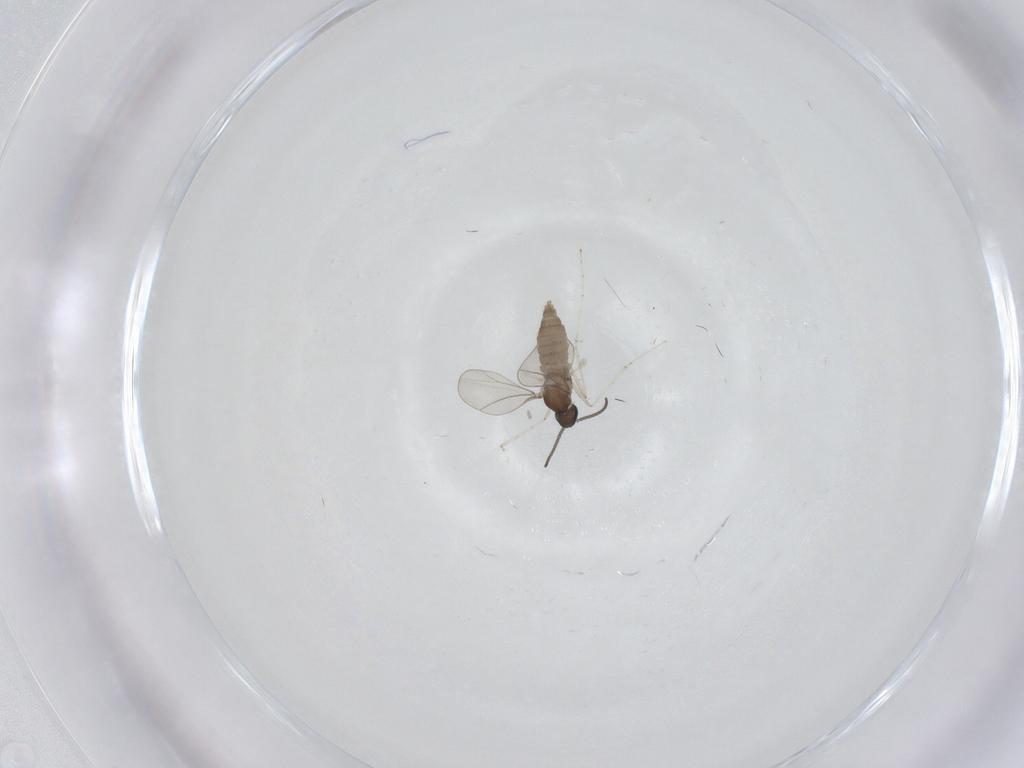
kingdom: Animalia
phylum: Arthropoda
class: Insecta
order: Diptera
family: Cecidomyiidae
